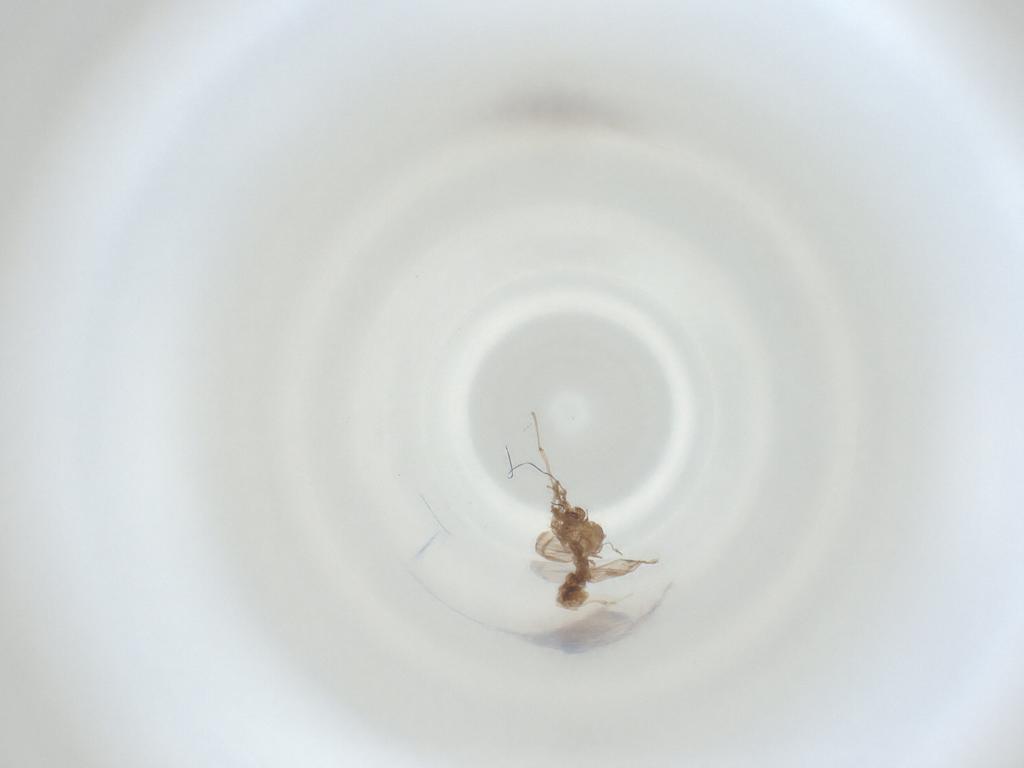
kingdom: Animalia
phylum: Arthropoda
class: Insecta
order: Diptera
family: Cecidomyiidae
